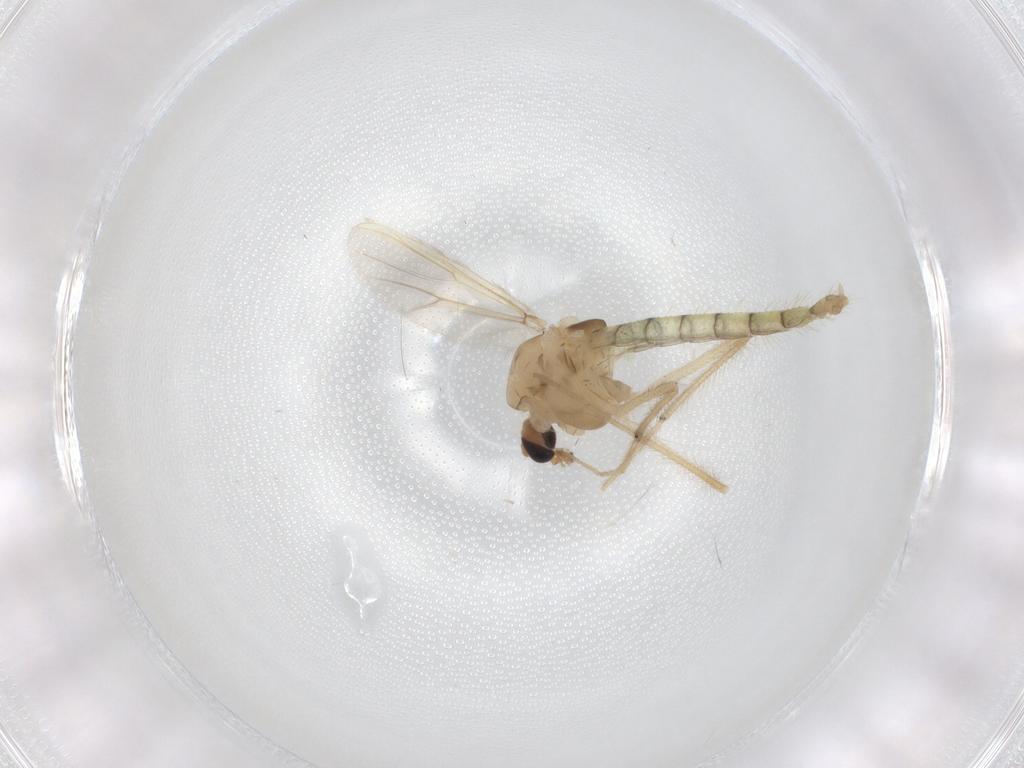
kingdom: Animalia
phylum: Arthropoda
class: Insecta
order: Diptera
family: Chironomidae
